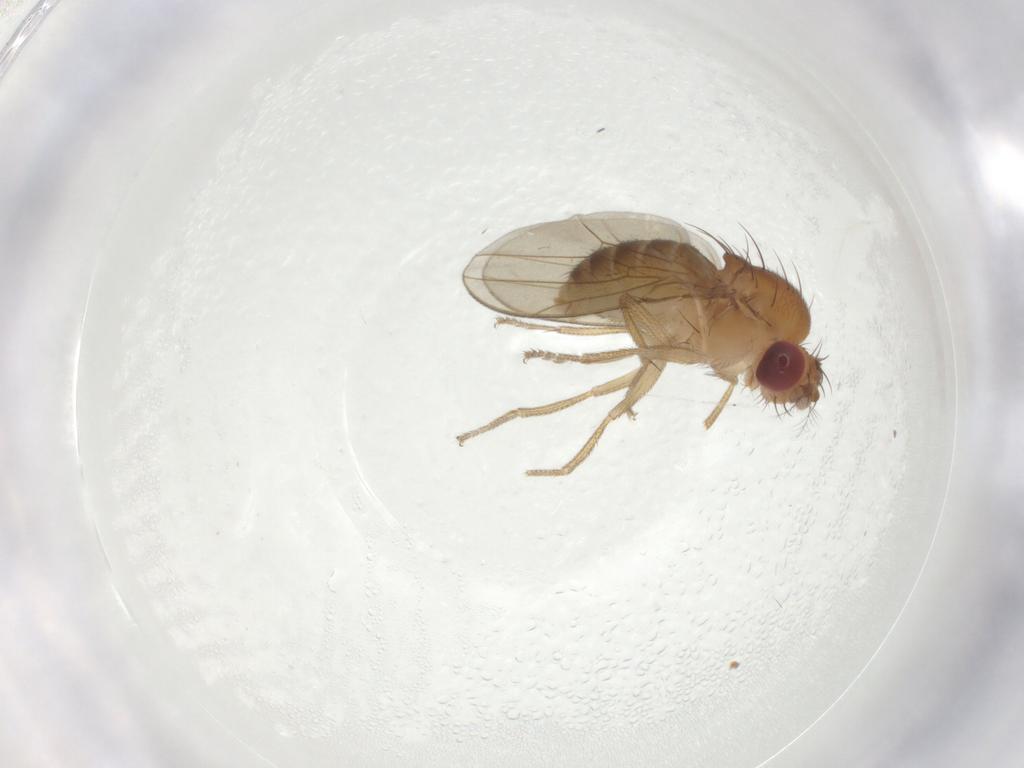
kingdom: Animalia
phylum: Arthropoda
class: Insecta
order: Diptera
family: Drosophilidae
